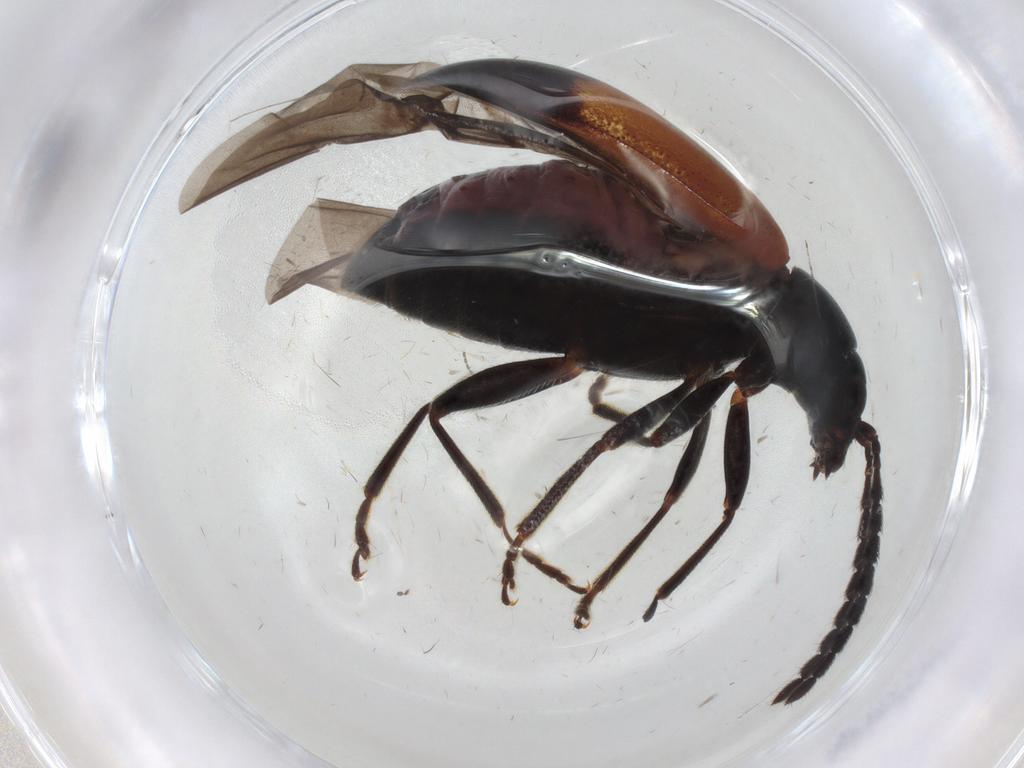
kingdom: Animalia
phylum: Arthropoda
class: Insecta
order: Coleoptera
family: Chrysomelidae
